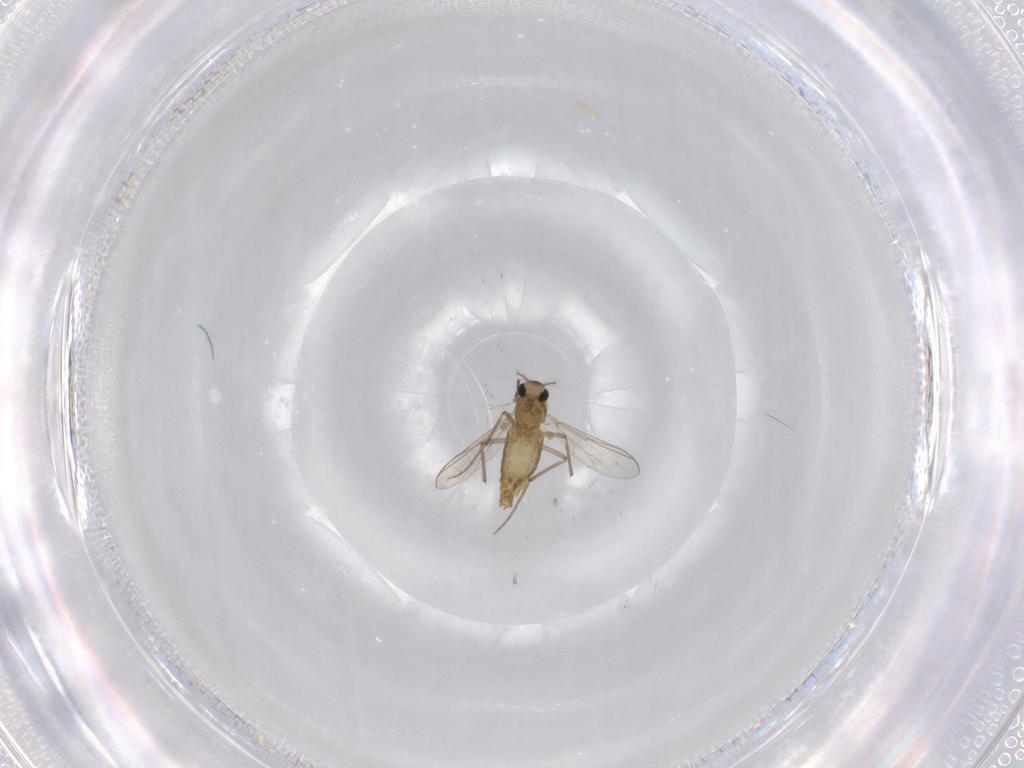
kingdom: Animalia
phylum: Arthropoda
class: Insecta
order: Diptera
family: Chironomidae
